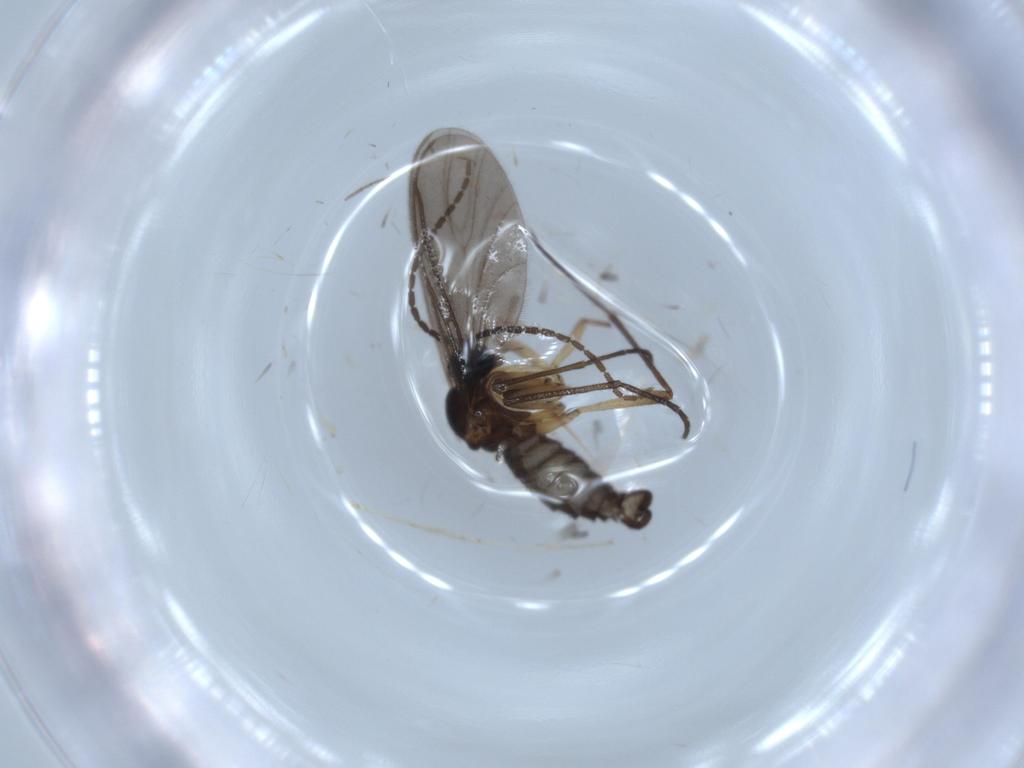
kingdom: Animalia
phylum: Arthropoda
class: Insecta
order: Diptera
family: Sciaridae
